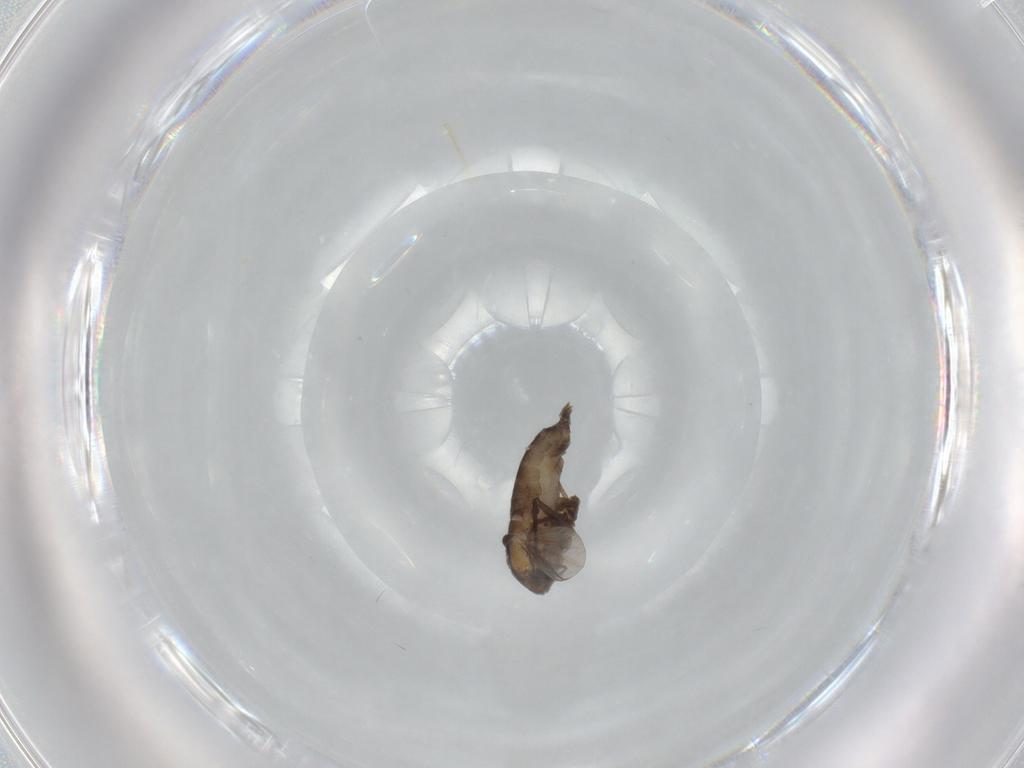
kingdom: Animalia
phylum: Arthropoda
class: Insecta
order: Diptera
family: Chironomidae
